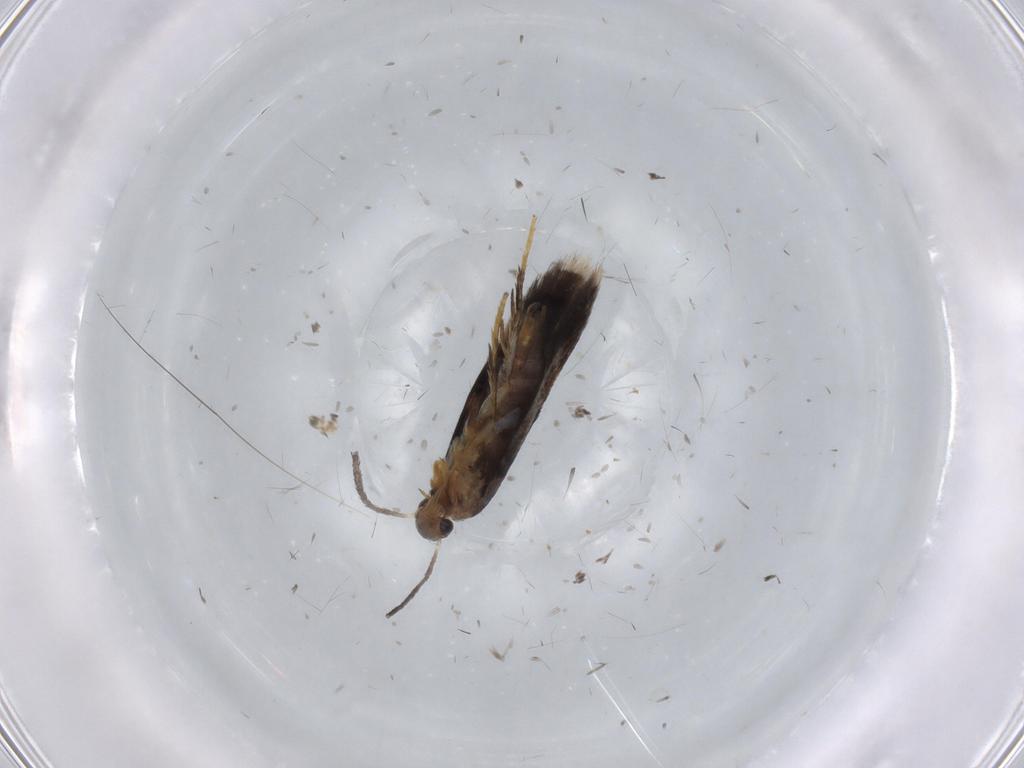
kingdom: Animalia
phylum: Arthropoda
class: Insecta
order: Lepidoptera
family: Heliozelidae
